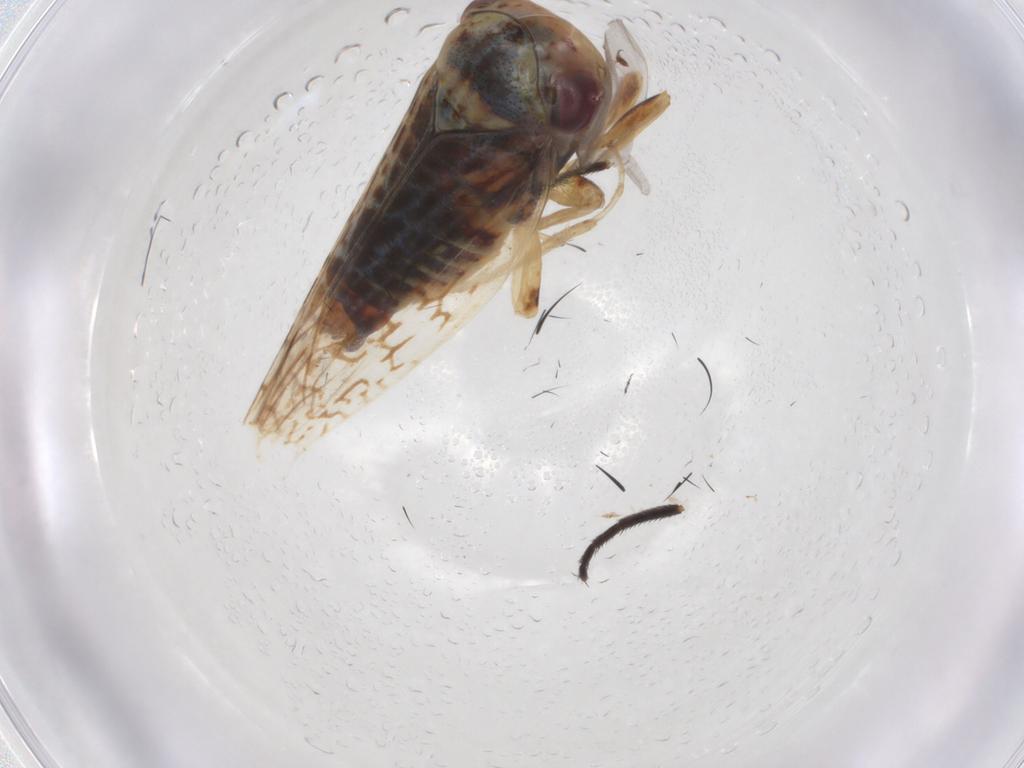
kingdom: Animalia
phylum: Arthropoda
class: Insecta
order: Hemiptera
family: Cicadellidae
